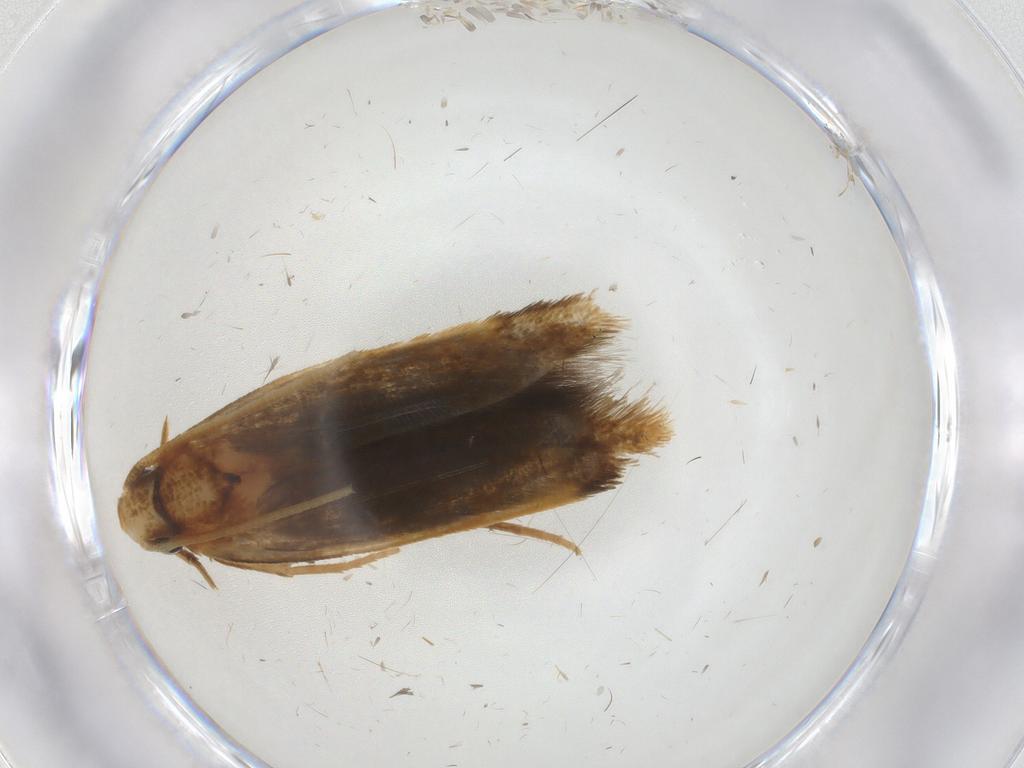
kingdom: Animalia
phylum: Arthropoda
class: Insecta
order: Lepidoptera
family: Tineidae
